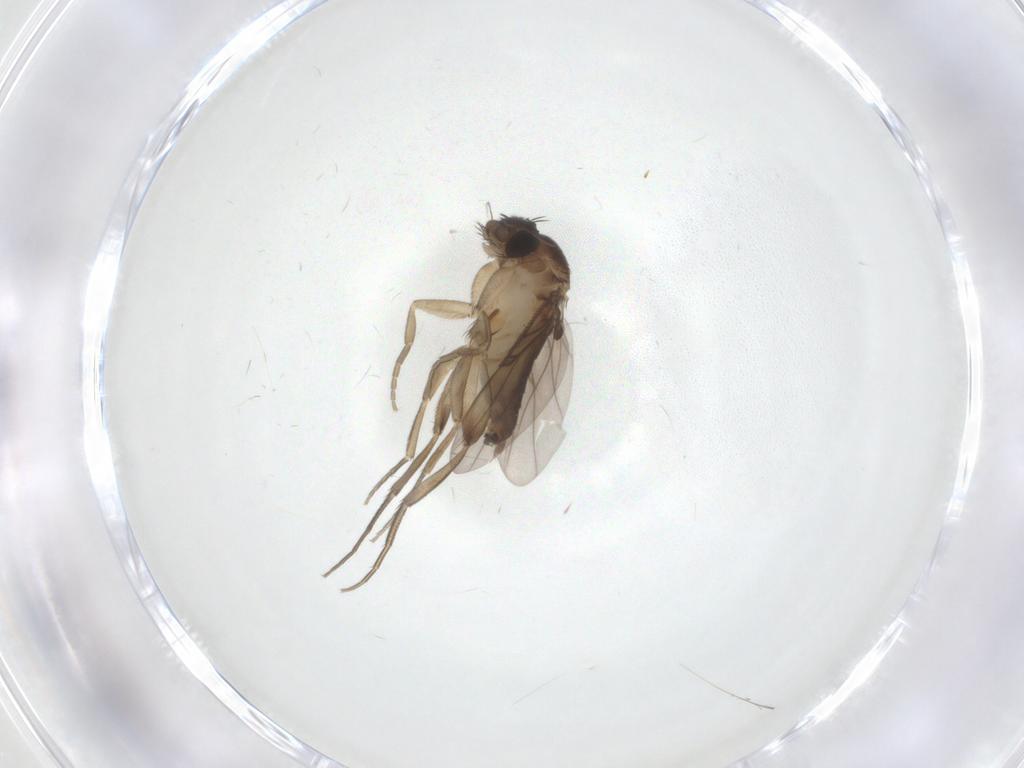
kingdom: Animalia
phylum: Arthropoda
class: Insecta
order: Diptera
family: Phoridae
